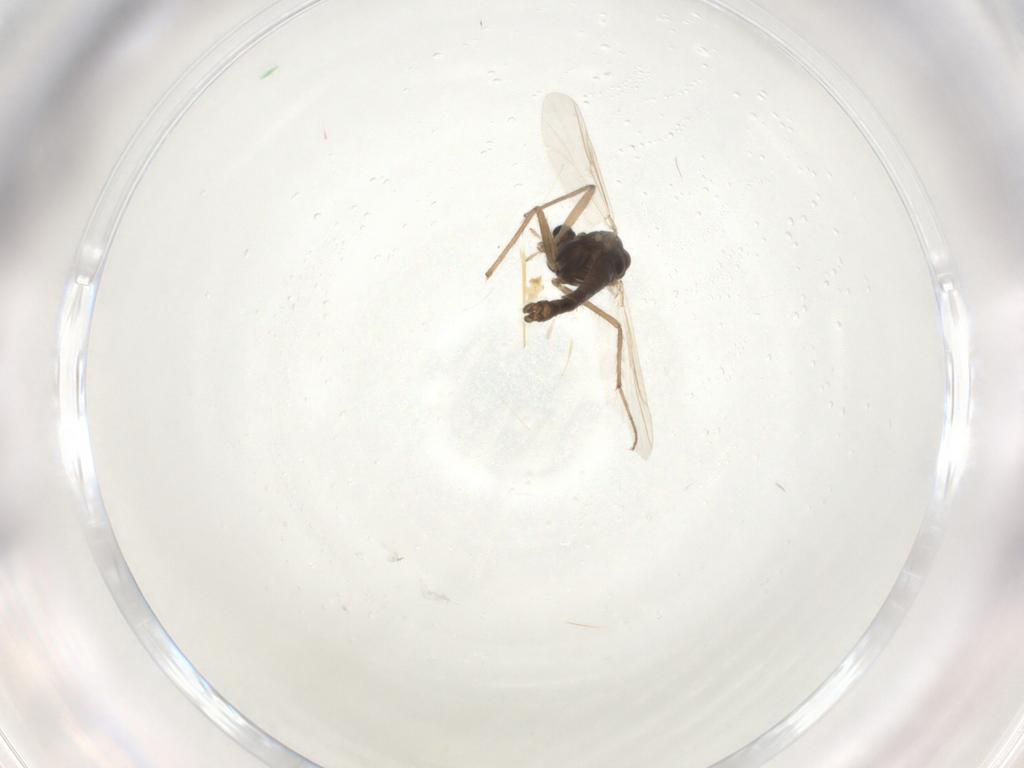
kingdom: Animalia
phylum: Arthropoda
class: Insecta
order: Diptera
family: Chironomidae
